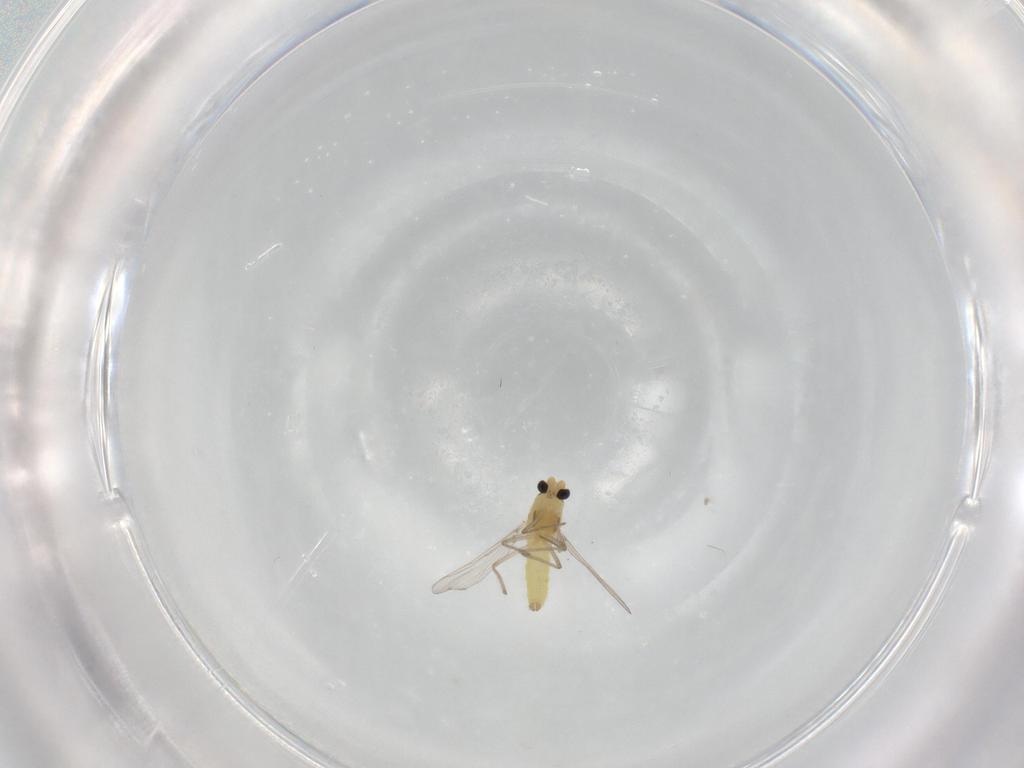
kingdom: Animalia
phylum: Arthropoda
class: Insecta
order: Diptera
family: Chironomidae
